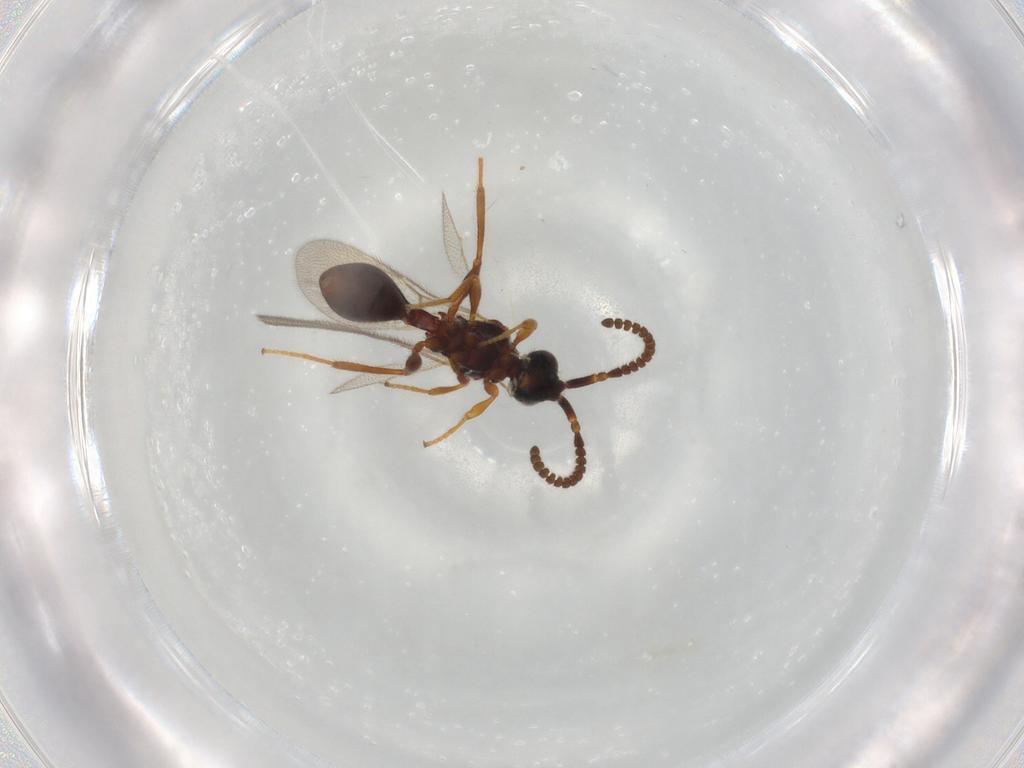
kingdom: Animalia
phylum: Arthropoda
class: Insecta
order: Hymenoptera
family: Diapriidae
